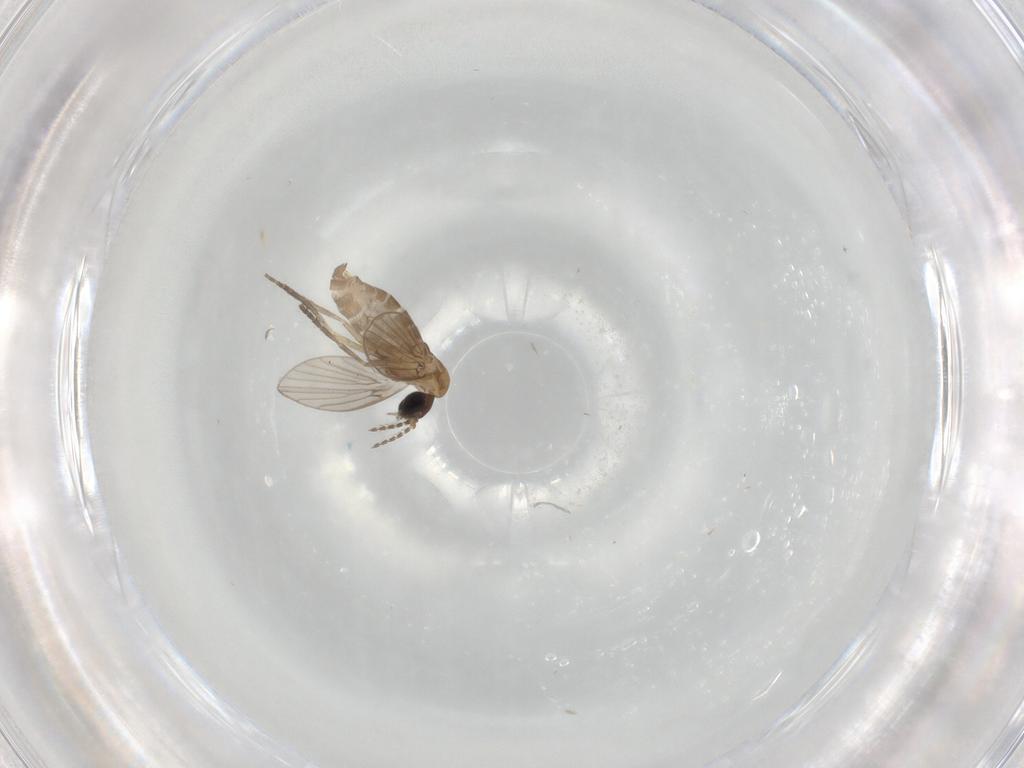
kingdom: Animalia
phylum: Arthropoda
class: Insecta
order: Diptera
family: Psychodidae
